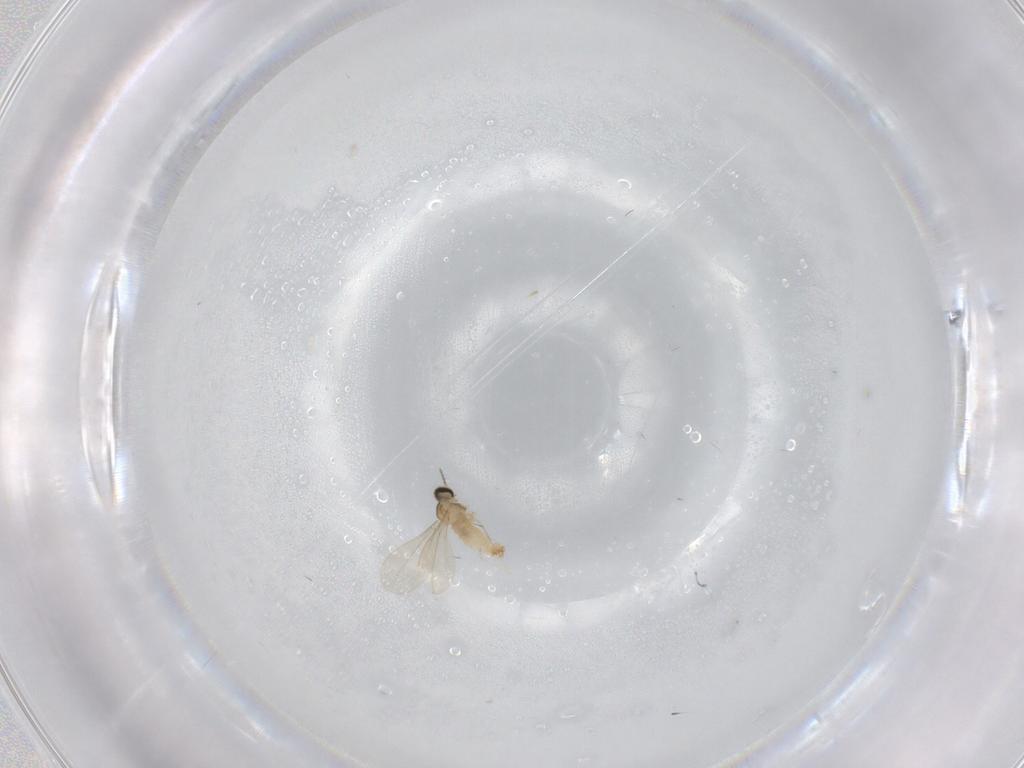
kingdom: Animalia
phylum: Arthropoda
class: Insecta
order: Diptera
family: Cecidomyiidae
